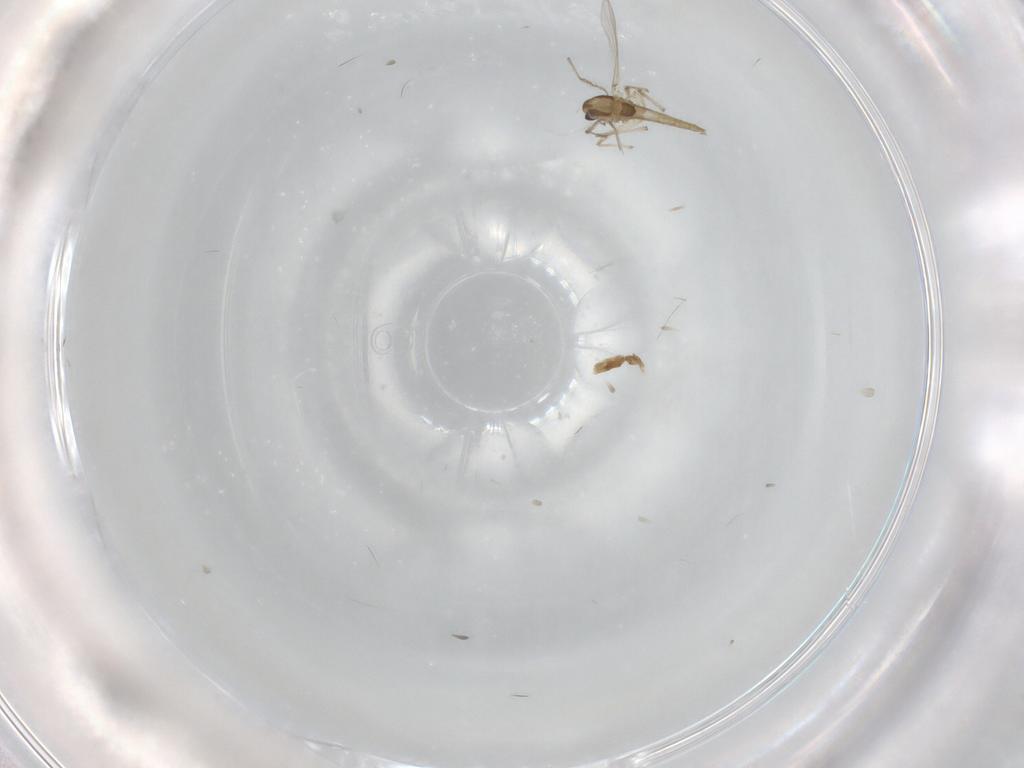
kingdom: Animalia
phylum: Arthropoda
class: Insecta
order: Diptera
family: Chironomidae
